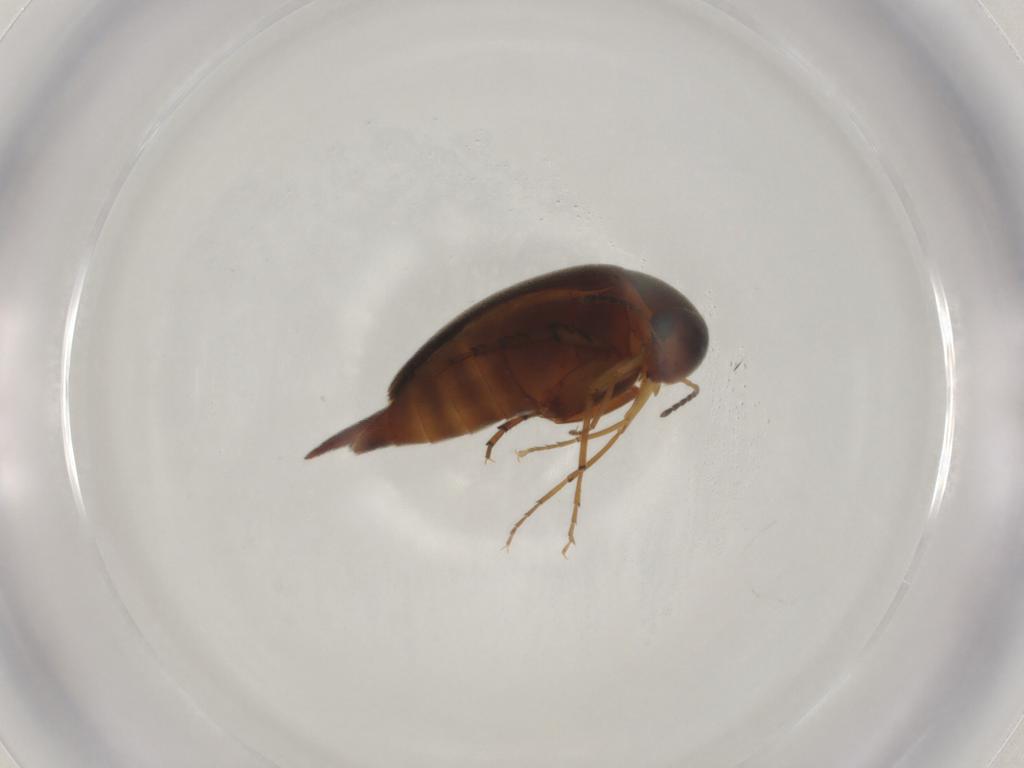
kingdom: Animalia
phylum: Arthropoda
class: Insecta
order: Coleoptera
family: Mordellidae
